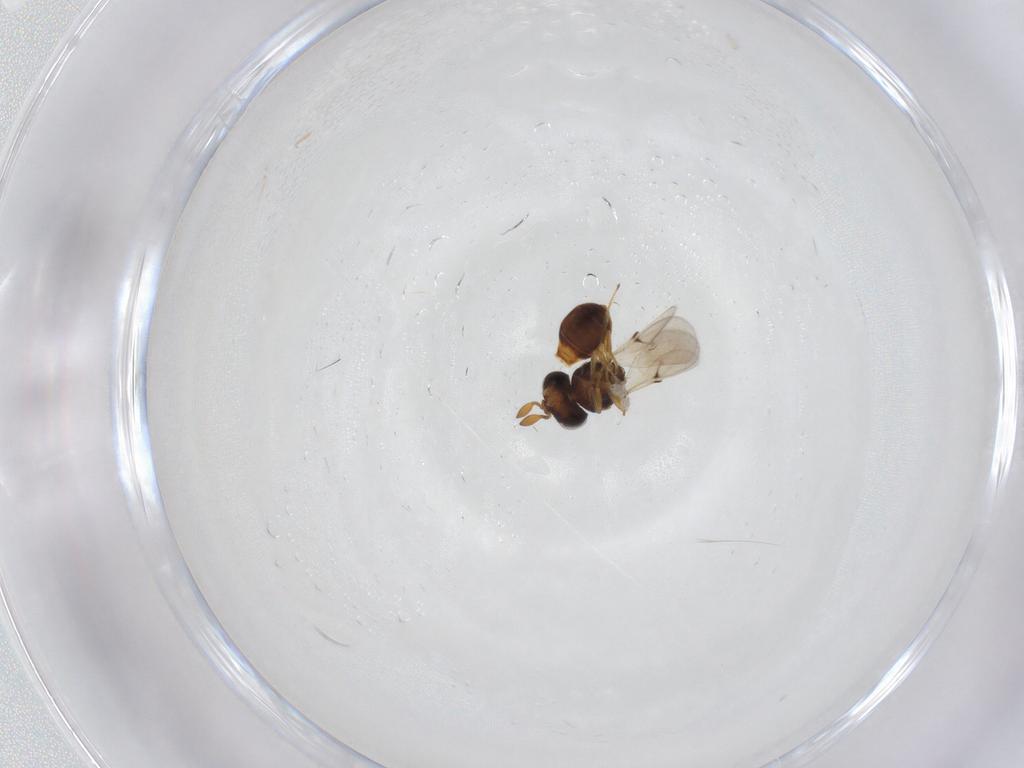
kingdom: Animalia
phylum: Arthropoda
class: Insecta
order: Hymenoptera
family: Scelionidae
